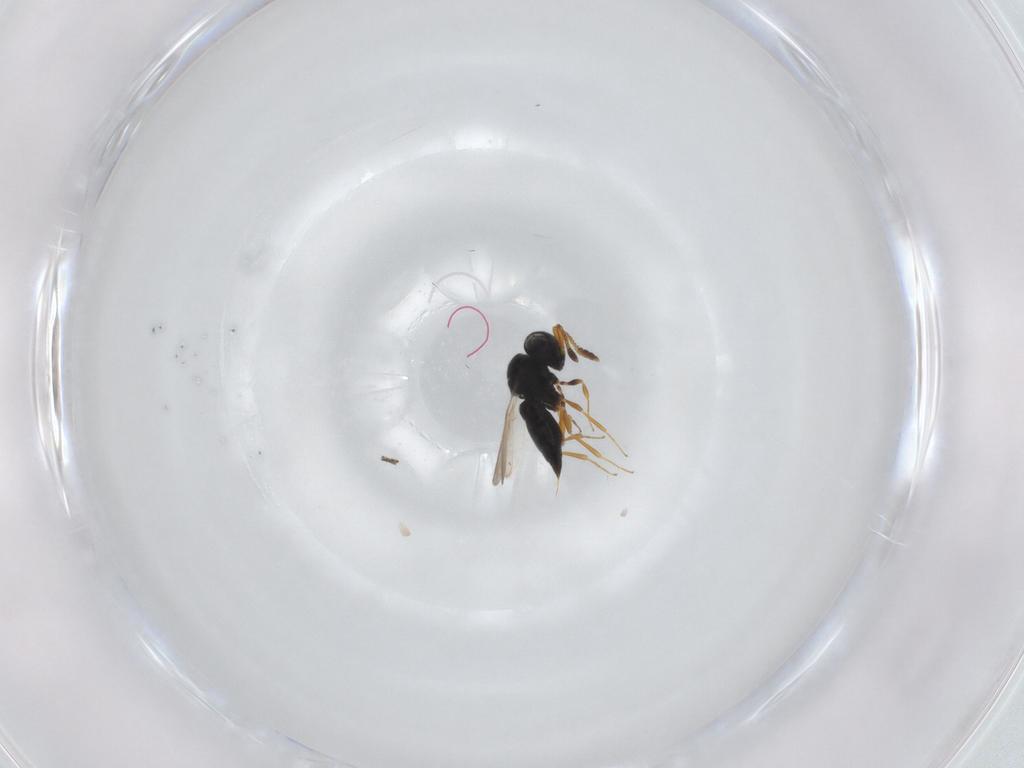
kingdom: Animalia
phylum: Arthropoda
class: Insecta
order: Hymenoptera
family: Scelionidae
